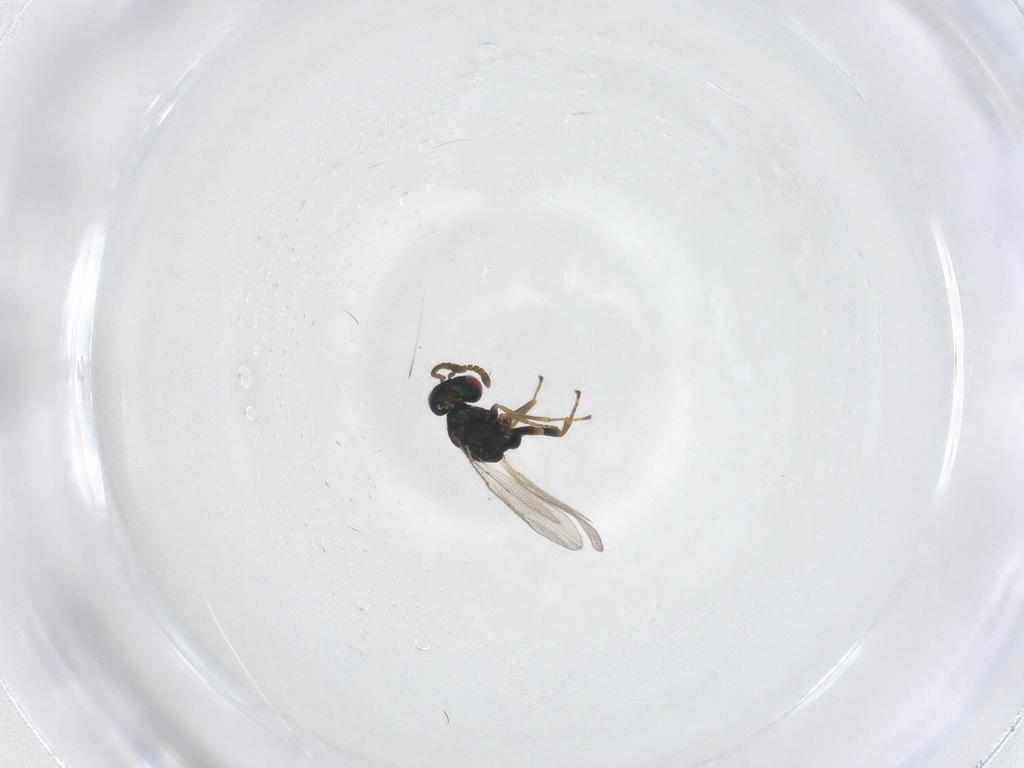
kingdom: Animalia
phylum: Arthropoda
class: Insecta
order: Hymenoptera
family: Pteromalidae
